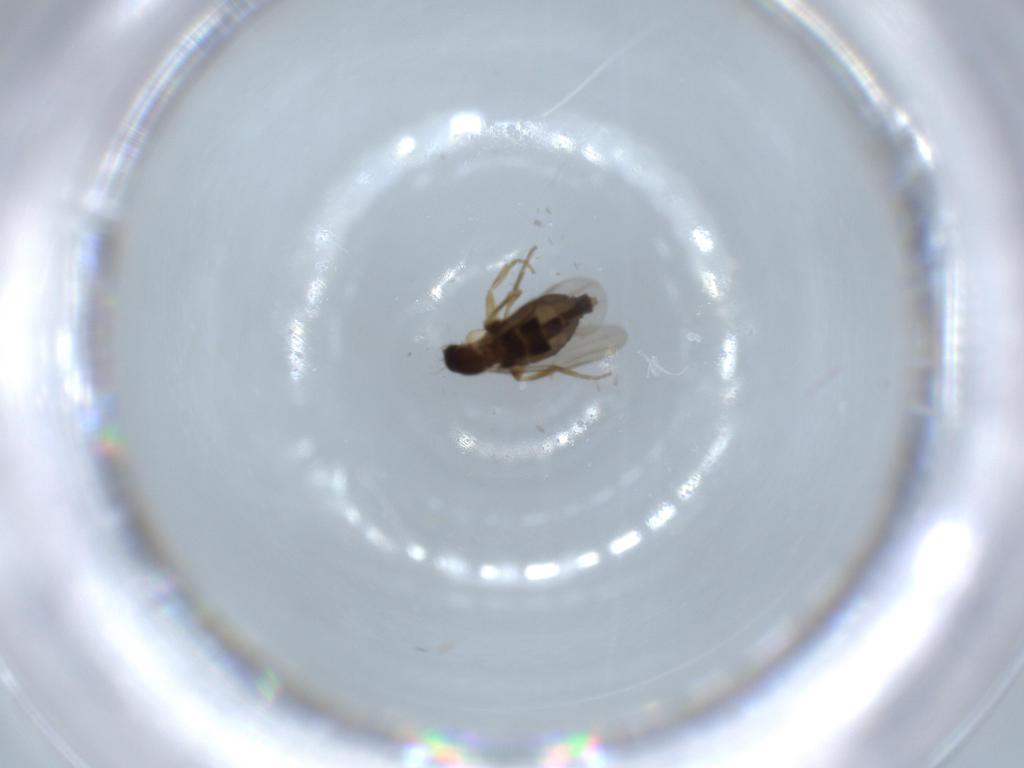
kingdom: Animalia
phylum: Arthropoda
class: Insecta
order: Diptera
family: Phoridae
